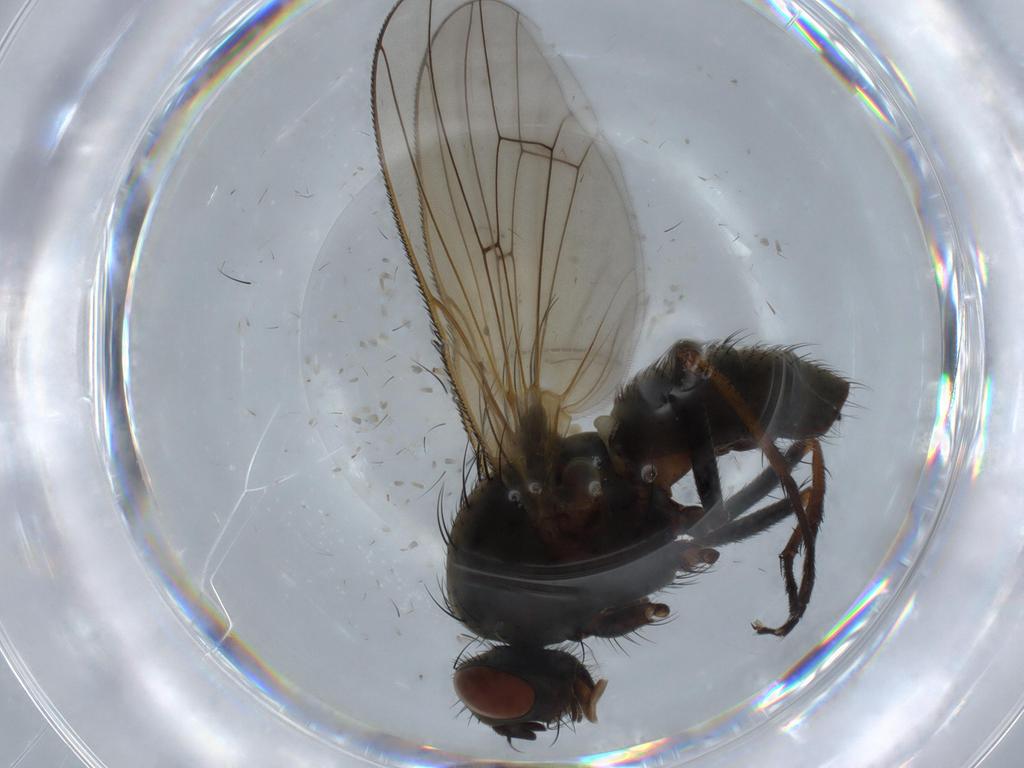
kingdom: Animalia
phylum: Arthropoda
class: Insecta
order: Diptera
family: Anthomyiidae
